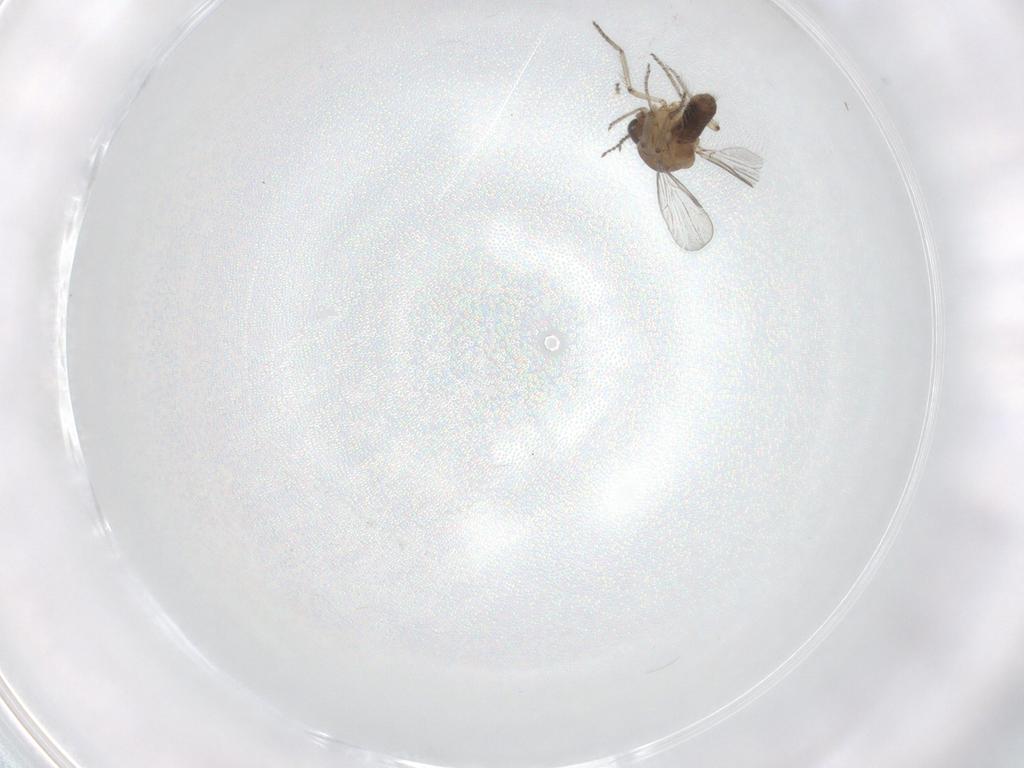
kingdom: Animalia
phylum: Arthropoda
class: Insecta
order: Diptera
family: Ceratopogonidae
